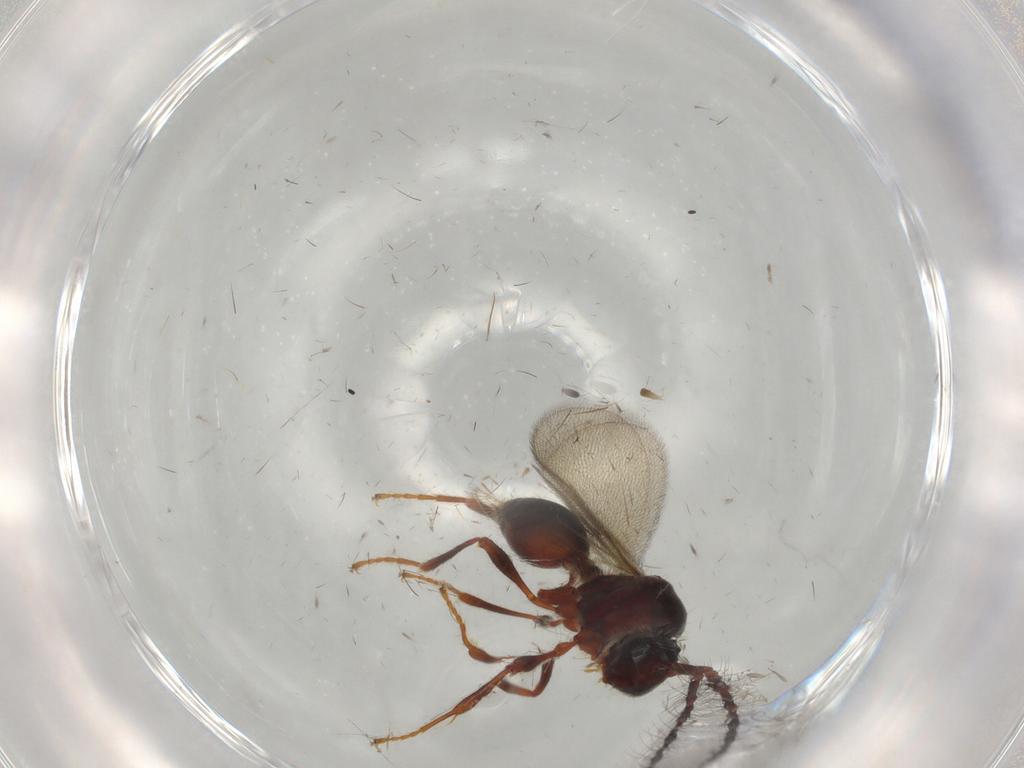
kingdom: Animalia
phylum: Arthropoda
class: Insecta
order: Hymenoptera
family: Diapriidae
